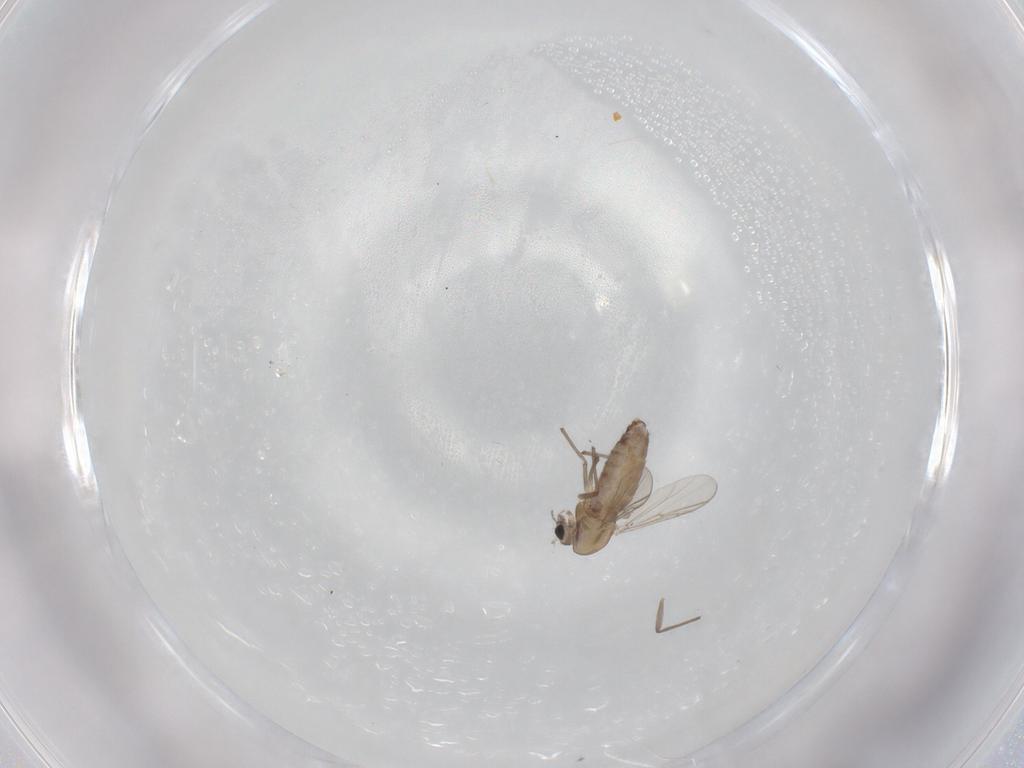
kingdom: Animalia
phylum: Arthropoda
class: Insecta
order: Diptera
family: Chironomidae
